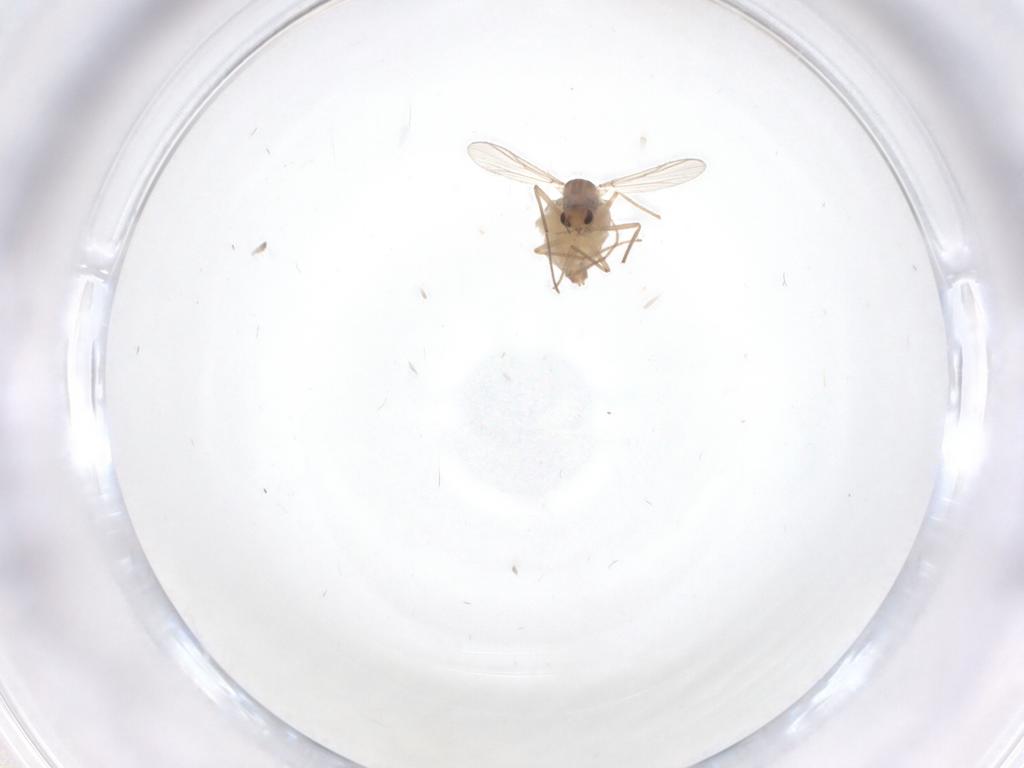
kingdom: Animalia
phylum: Arthropoda
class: Insecta
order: Diptera
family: Chironomidae
